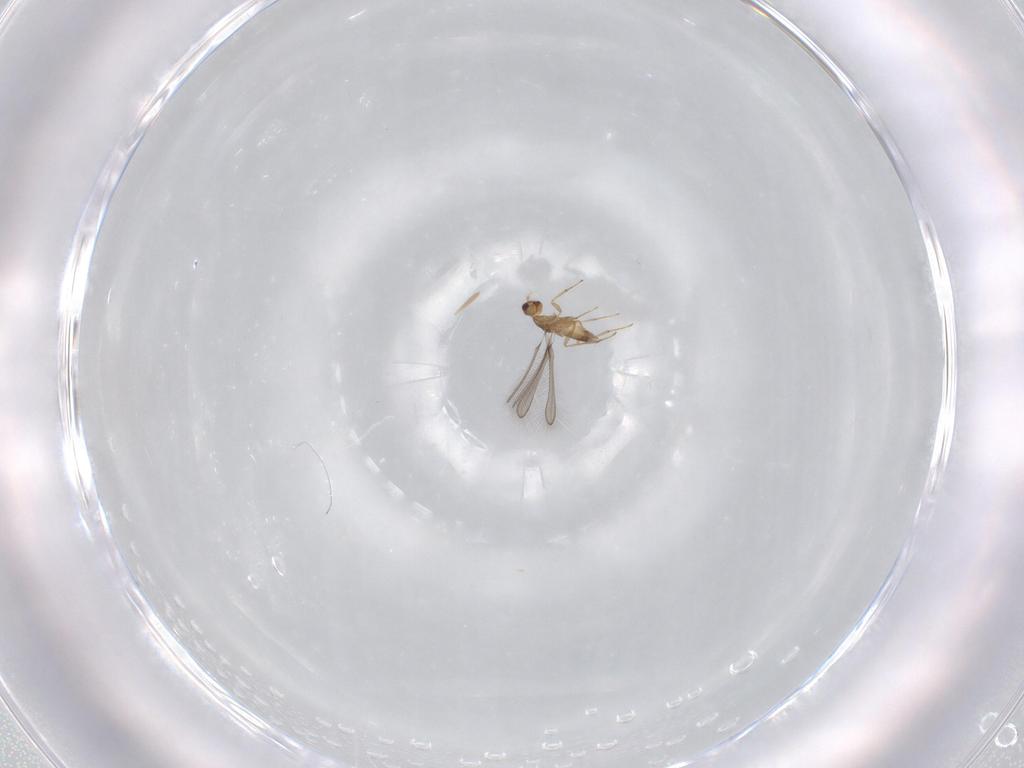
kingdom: Animalia
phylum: Arthropoda
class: Insecta
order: Hymenoptera
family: Mymaridae
